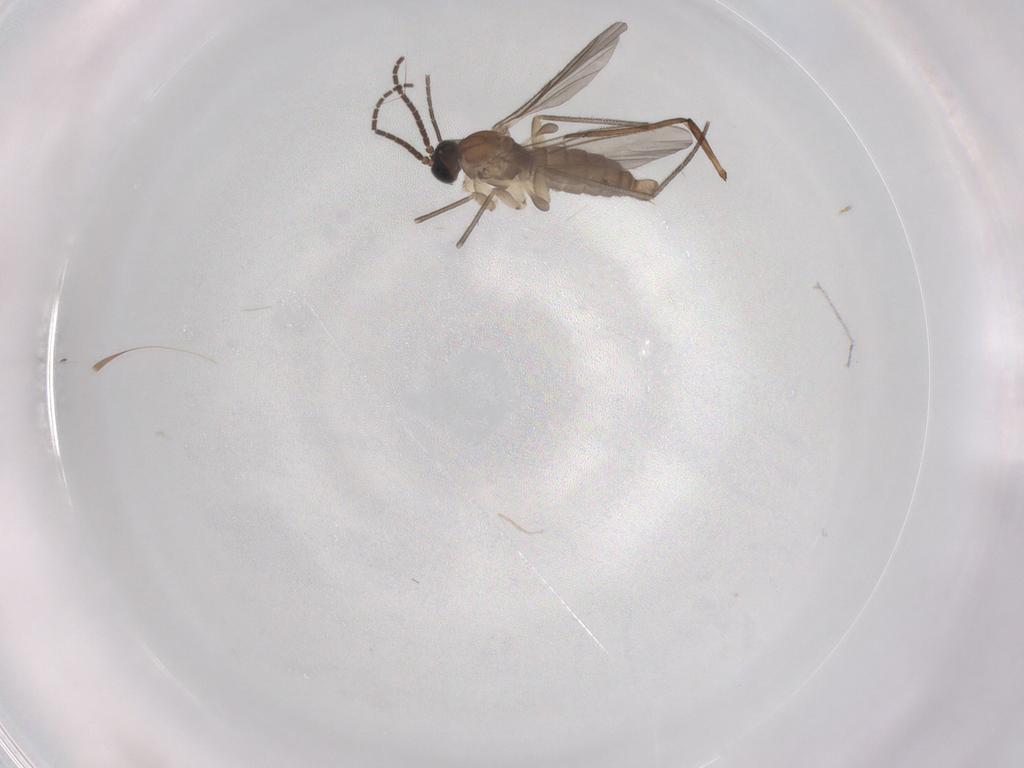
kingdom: Animalia
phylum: Arthropoda
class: Insecta
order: Diptera
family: Sciaridae
